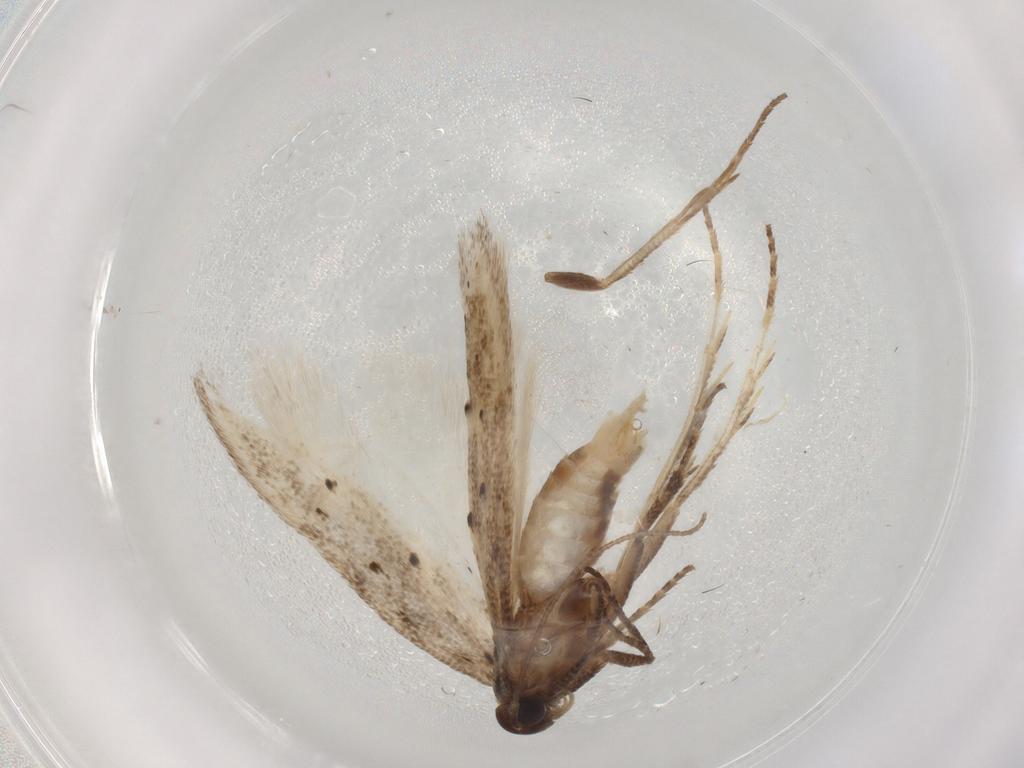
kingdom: Animalia
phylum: Arthropoda
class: Insecta
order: Lepidoptera
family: Gelechiidae
